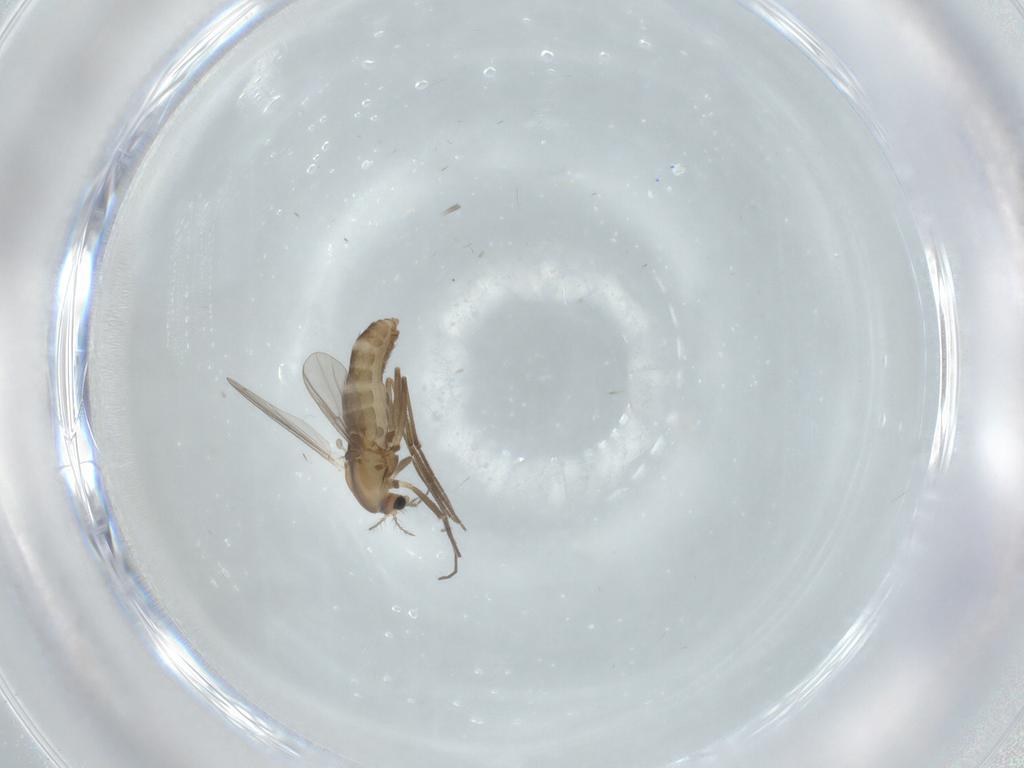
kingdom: Animalia
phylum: Arthropoda
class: Insecta
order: Diptera
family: Chironomidae
